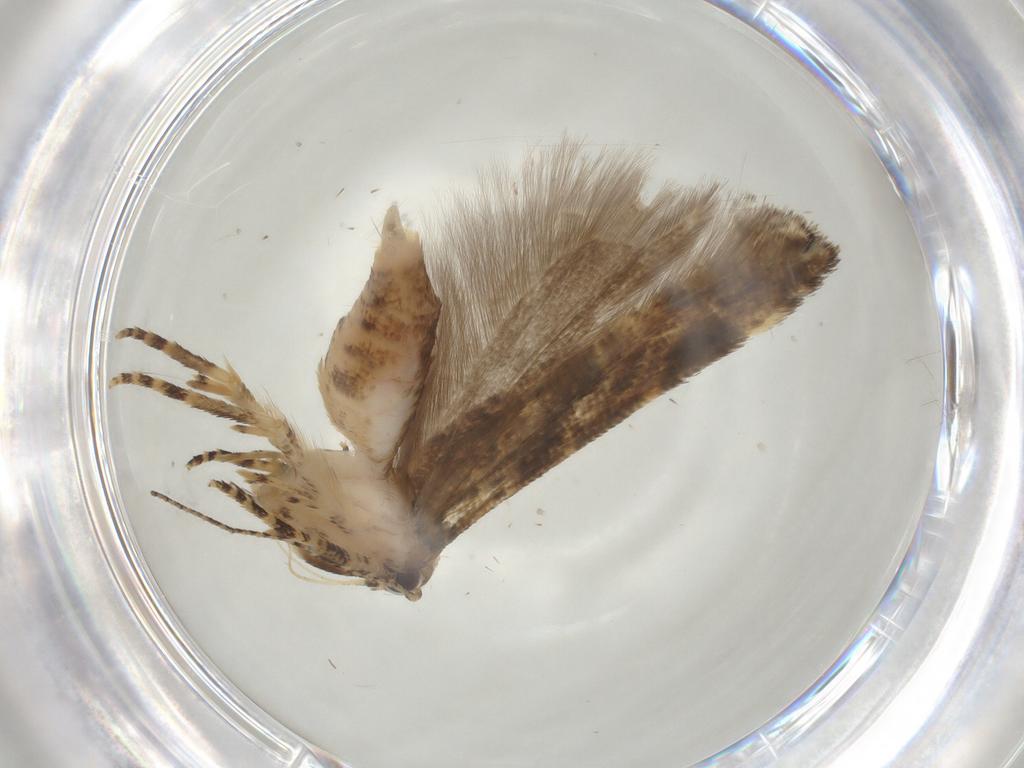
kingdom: Animalia
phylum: Arthropoda
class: Insecta
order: Lepidoptera
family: Gelechiidae
